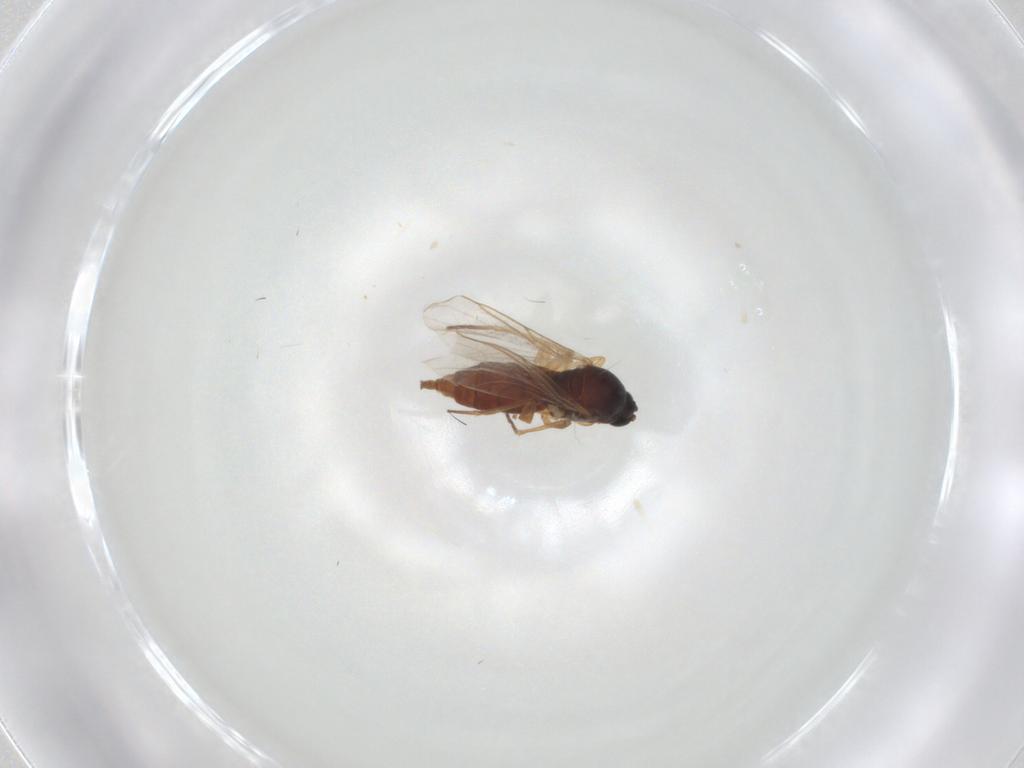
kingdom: Animalia
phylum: Arthropoda
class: Insecta
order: Diptera
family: Sciaridae
